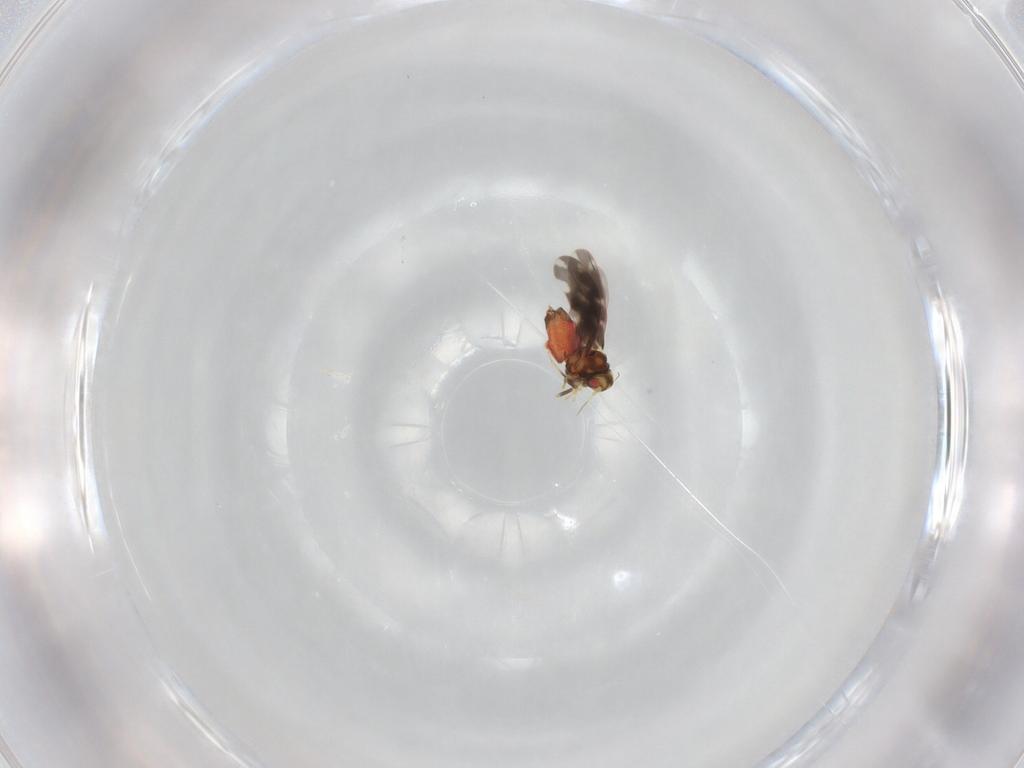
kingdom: Animalia
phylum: Arthropoda
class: Insecta
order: Hemiptera
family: Aleyrodidae
